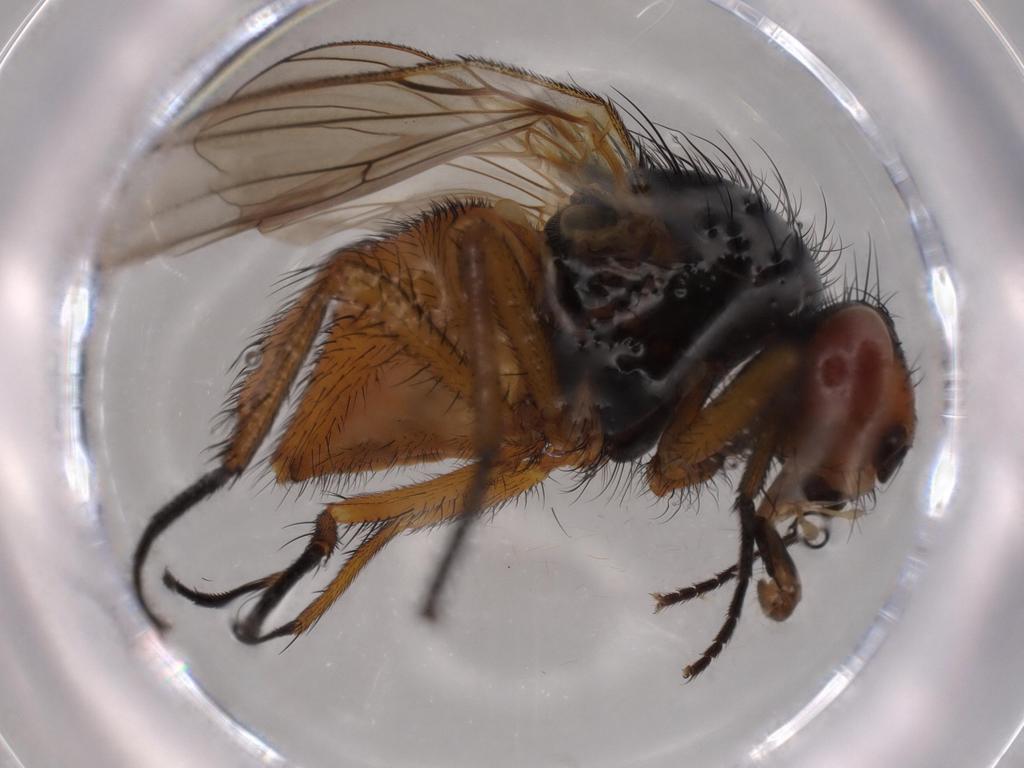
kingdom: Animalia
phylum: Arthropoda
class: Insecta
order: Diptera
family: Anthomyiidae
